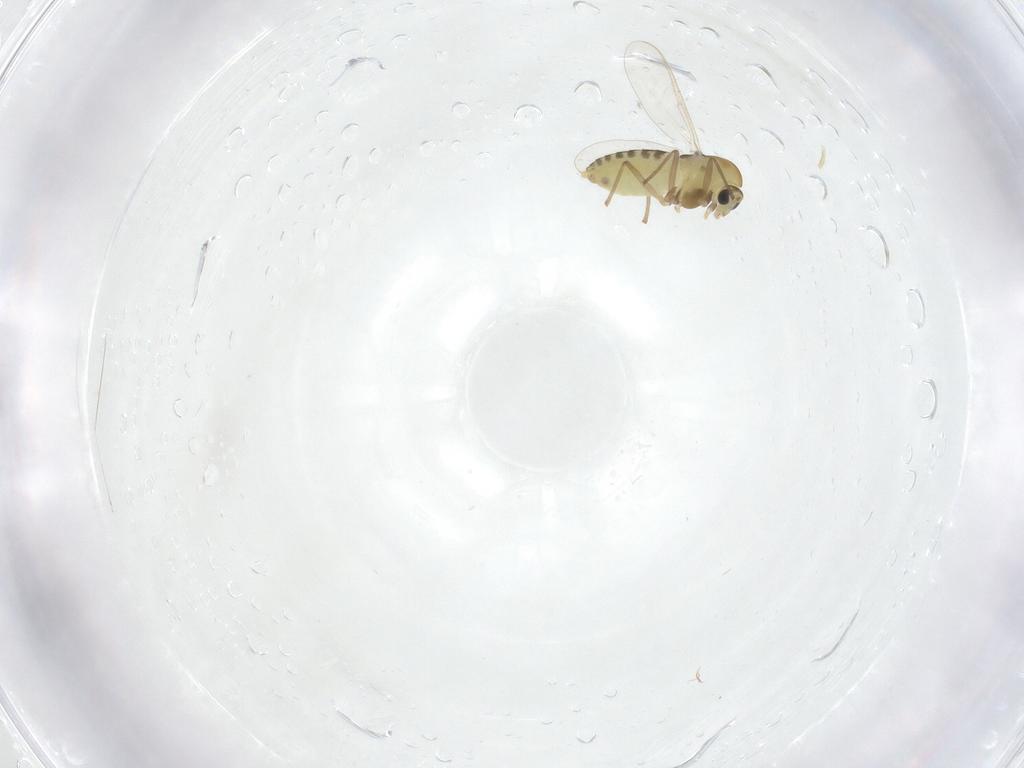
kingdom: Animalia
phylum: Arthropoda
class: Insecta
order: Diptera
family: Chironomidae
